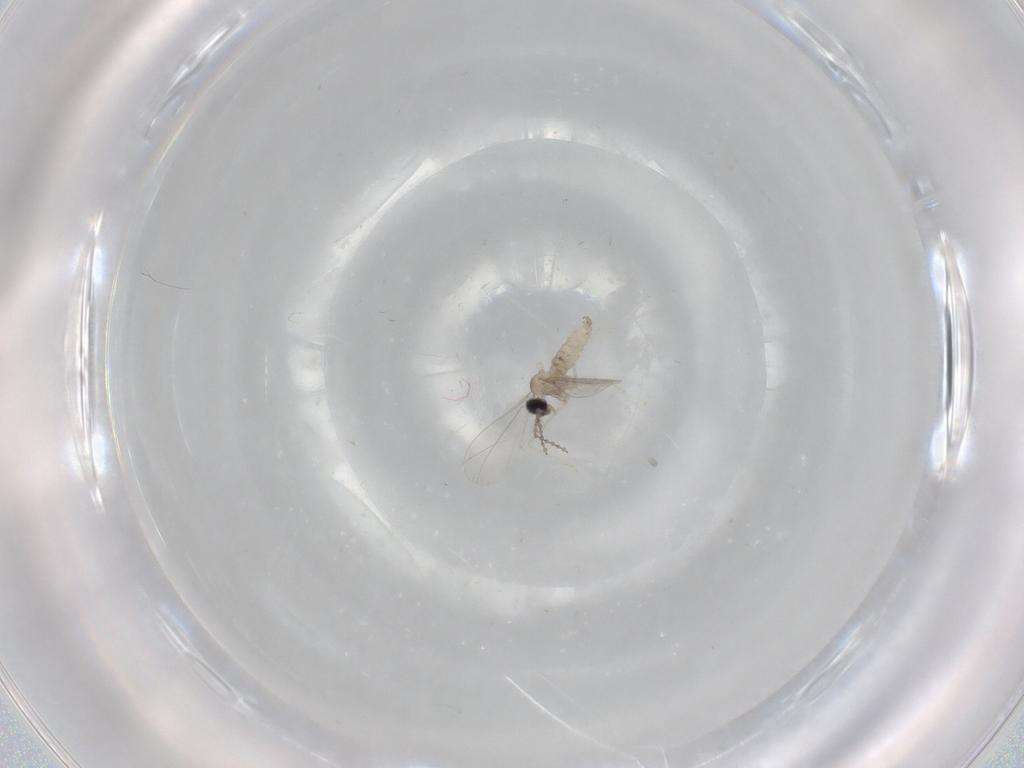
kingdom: Animalia
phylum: Arthropoda
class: Insecta
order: Diptera
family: Cecidomyiidae
